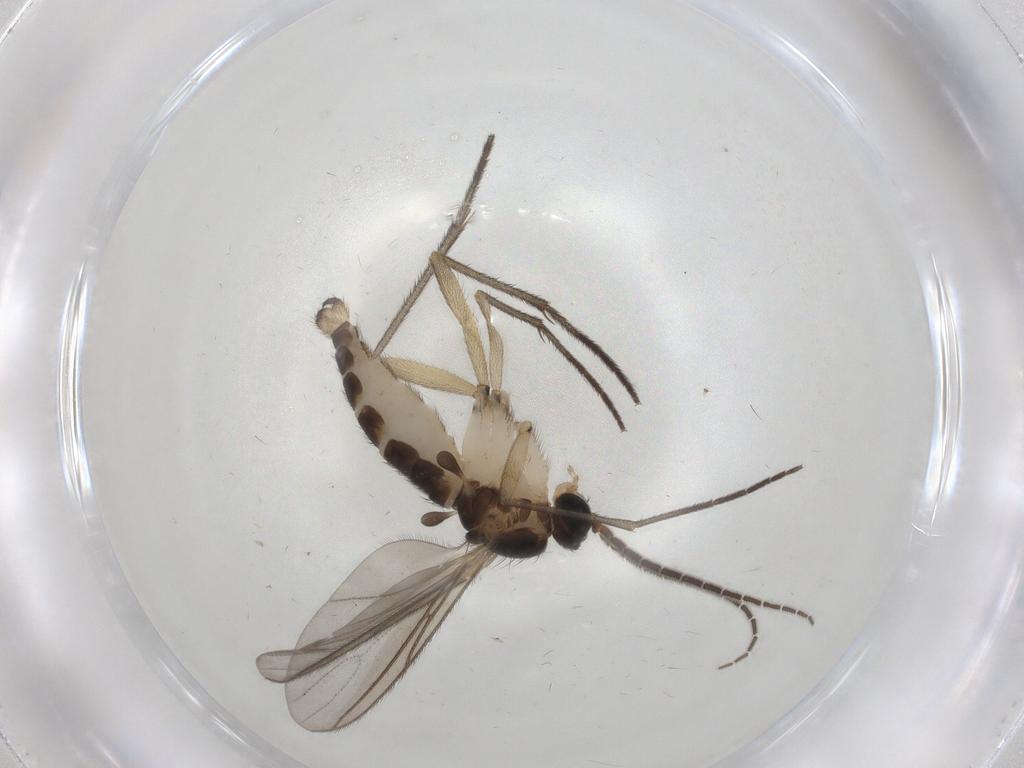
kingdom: Animalia
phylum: Arthropoda
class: Insecta
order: Diptera
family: Sciaridae
